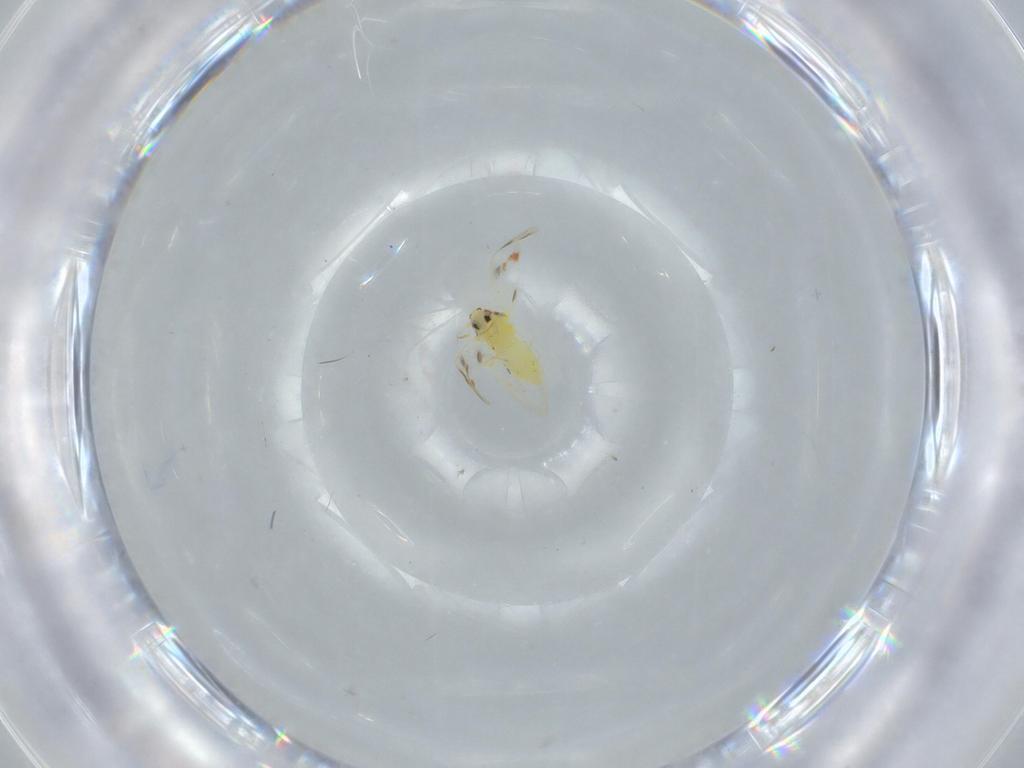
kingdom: Animalia
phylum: Arthropoda
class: Insecta
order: Hemiptera
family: Aleyrodidae
